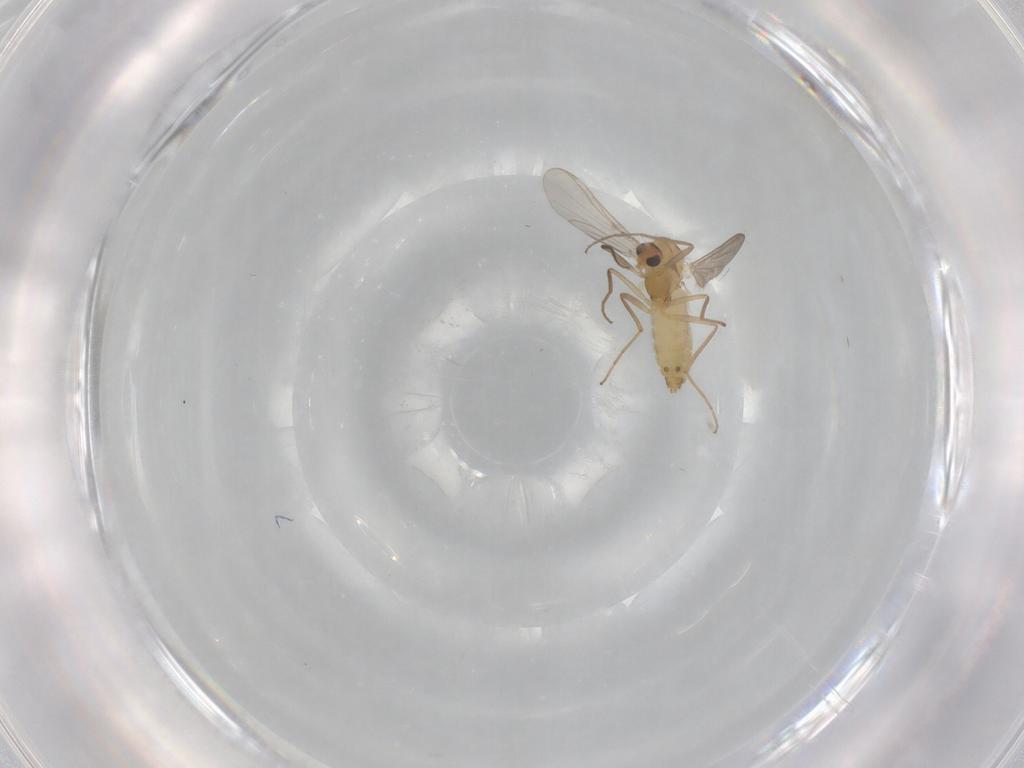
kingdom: Animalia
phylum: Arthropoda
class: Insecta
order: Diptera
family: Chironomidae
